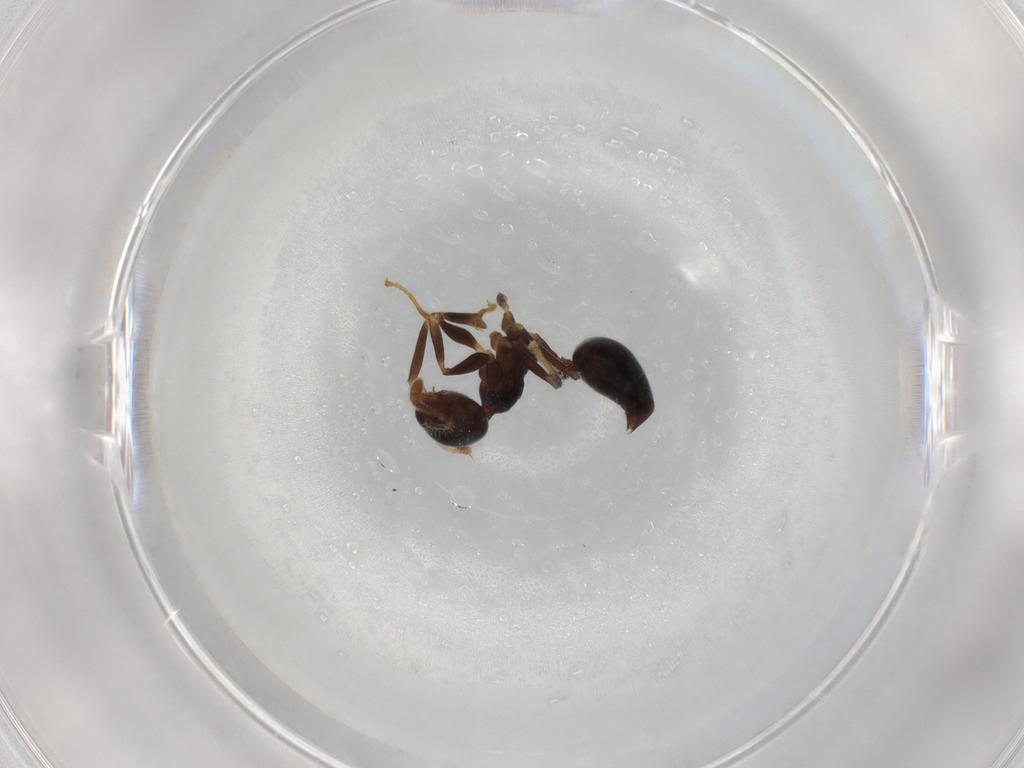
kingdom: Animalia
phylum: Arthropoda
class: Insecta
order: Hymenoptera
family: Formicidae
